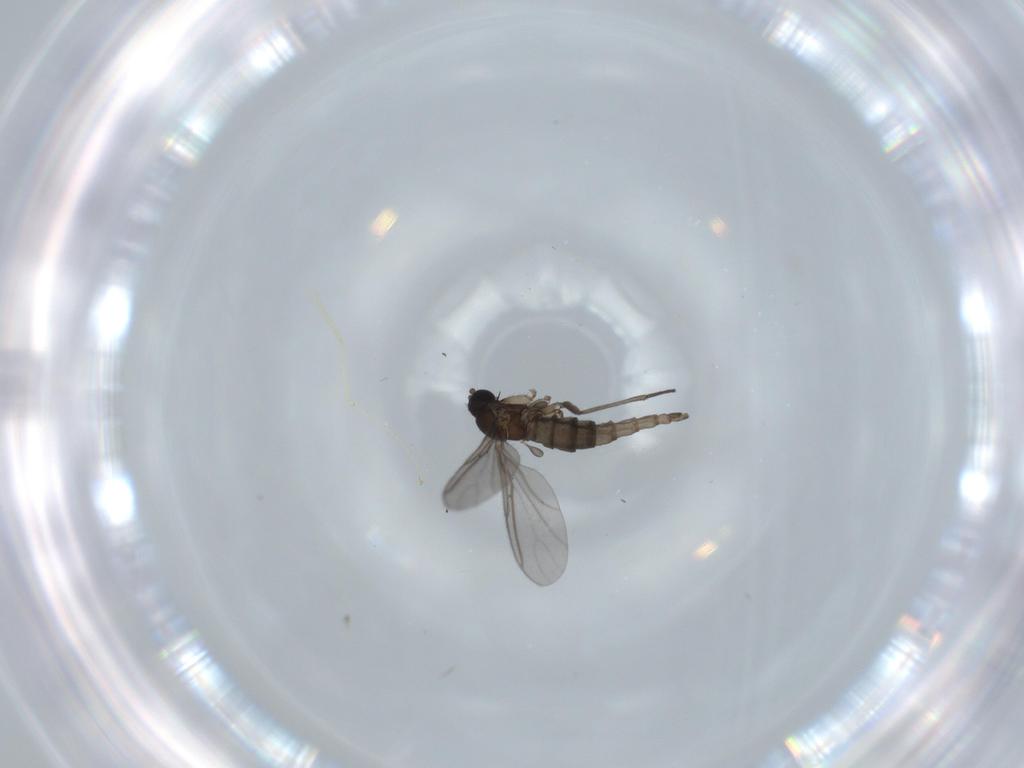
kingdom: Animalia
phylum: Arthropoda
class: Insecta
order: Diptera
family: Cecidomyiidae
